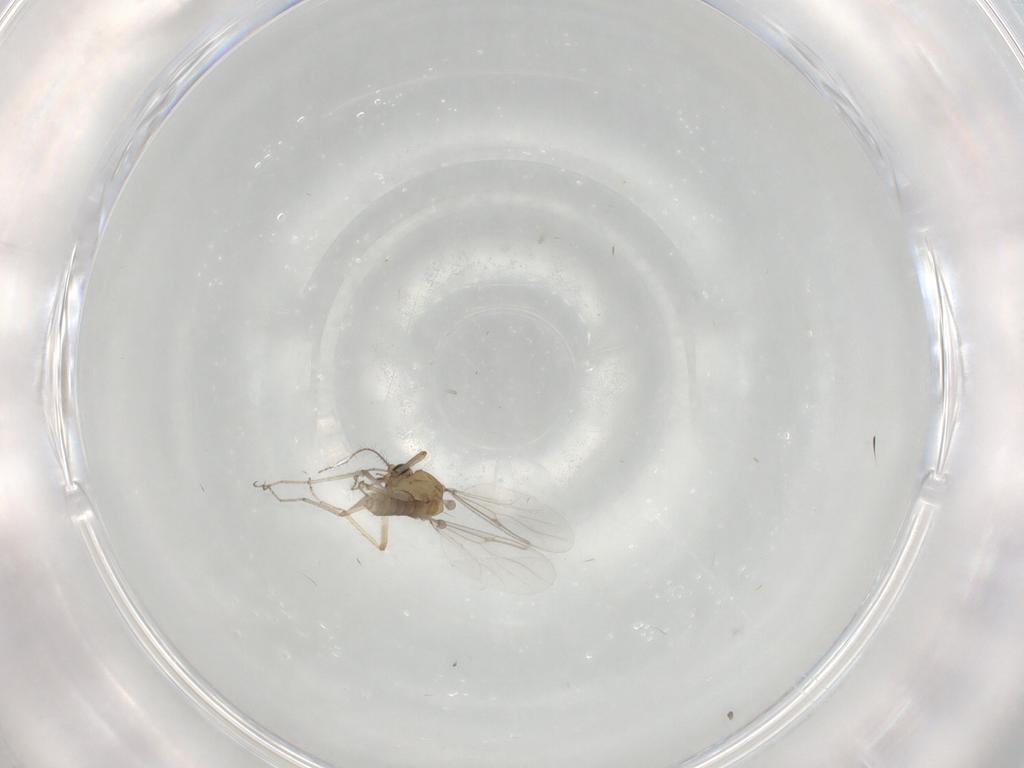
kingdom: Animalia
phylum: Arthropoda
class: Insecta
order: Diptera
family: Ceratopogonidae
